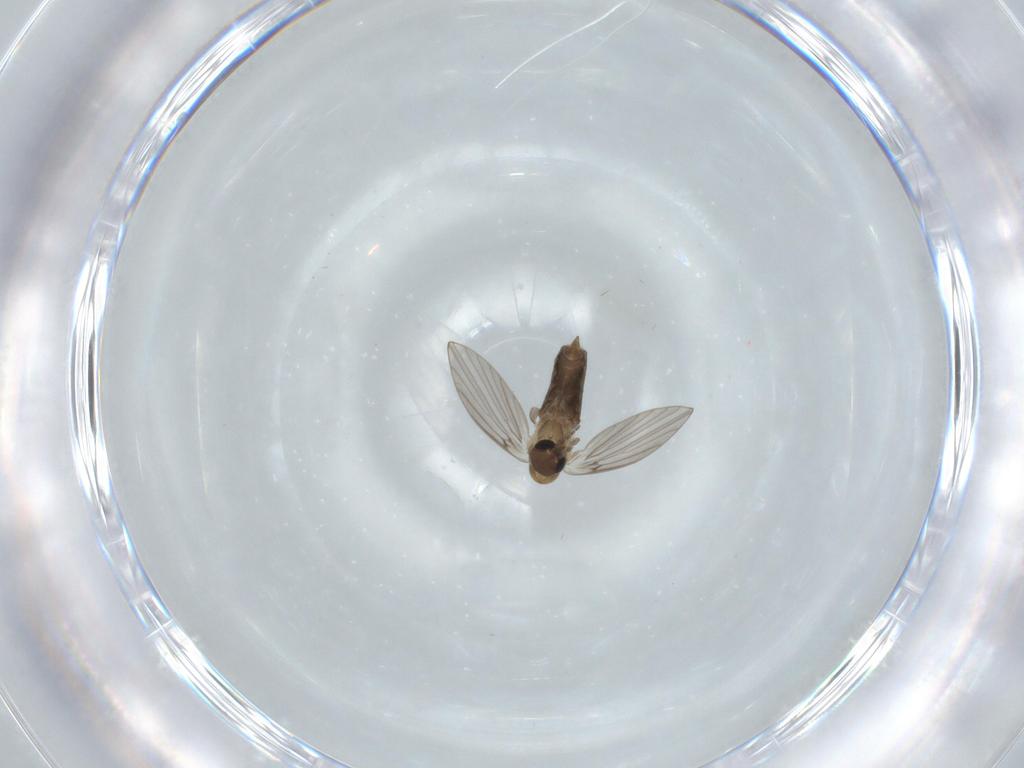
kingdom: Animalia
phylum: Arthropoda
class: Insecta
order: Diptera
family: Psychodidae
